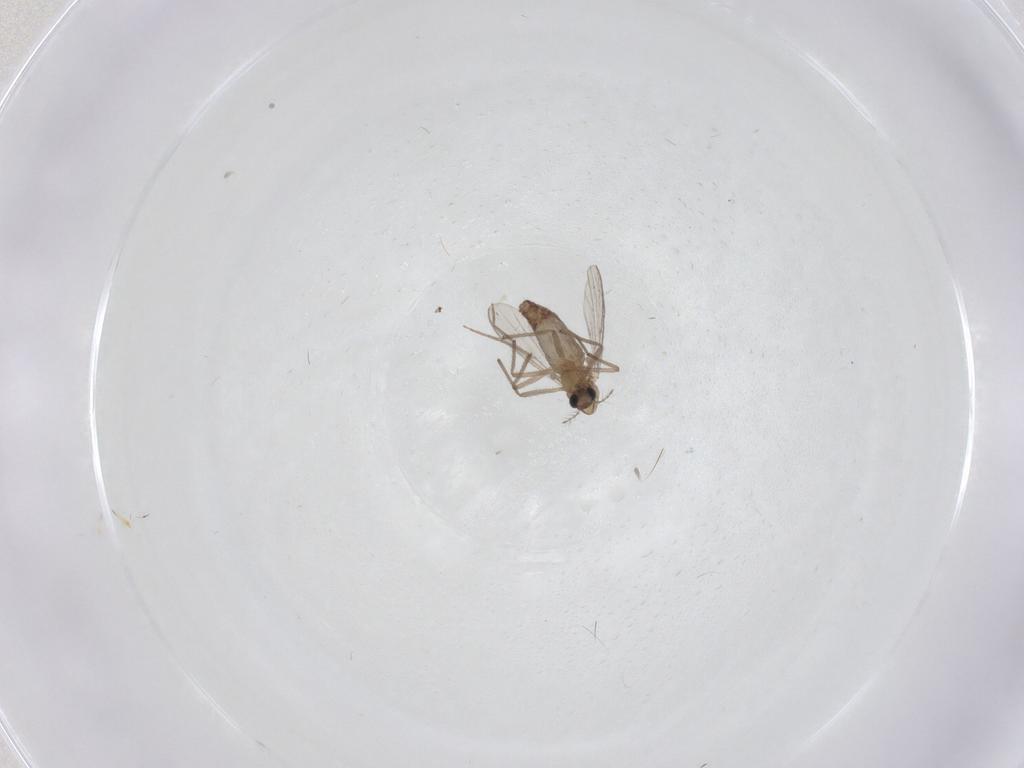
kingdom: Animalia
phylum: Arthropoda
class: Insecta
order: Diptera
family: Chironomidae
